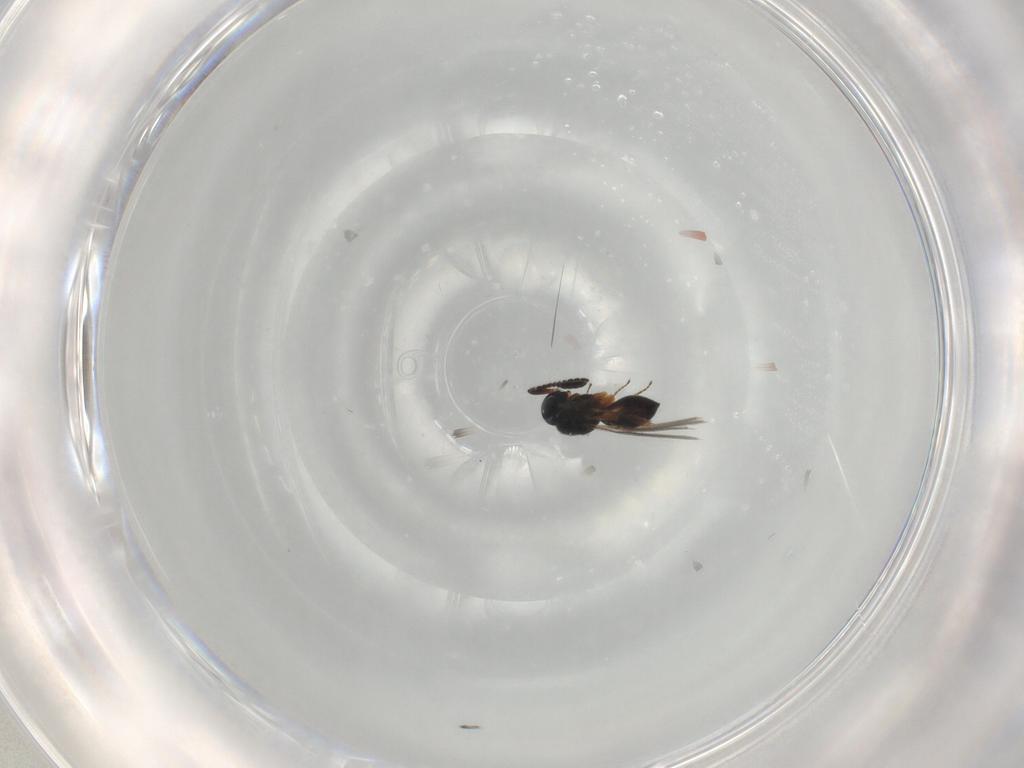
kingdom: Animalia
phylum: Arthropoda
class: Insecta
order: Hymenoptera
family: Scelionidae
